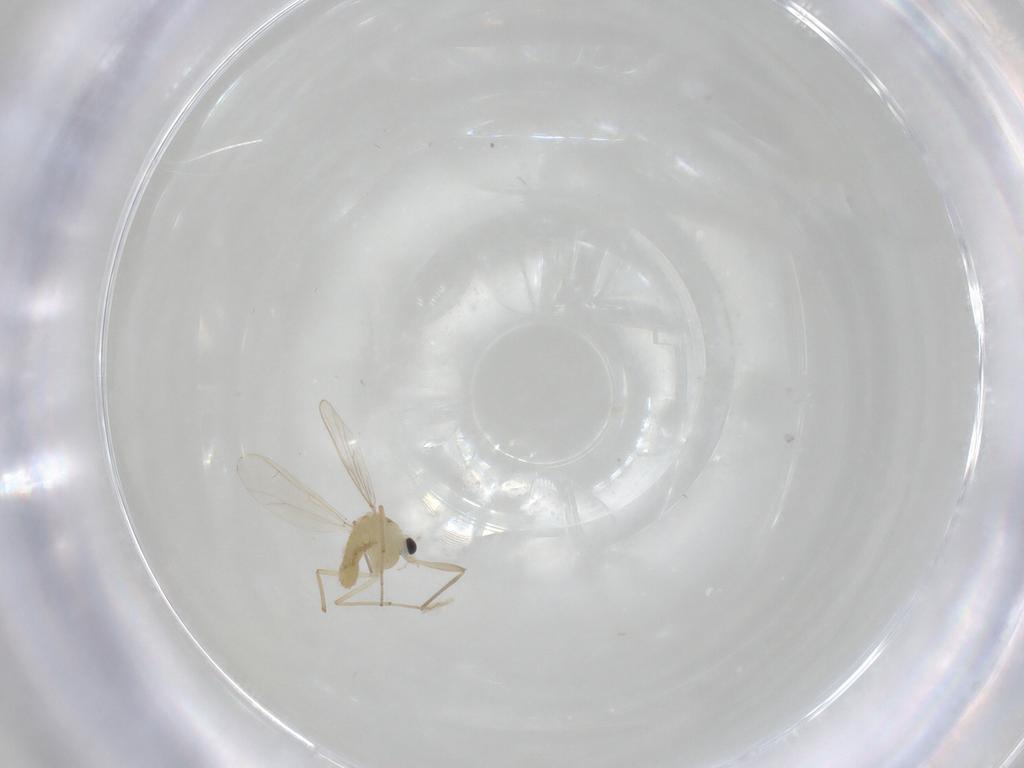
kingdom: Animalia
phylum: Arthropoda
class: Insecta
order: Diptera
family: Chironomidae
